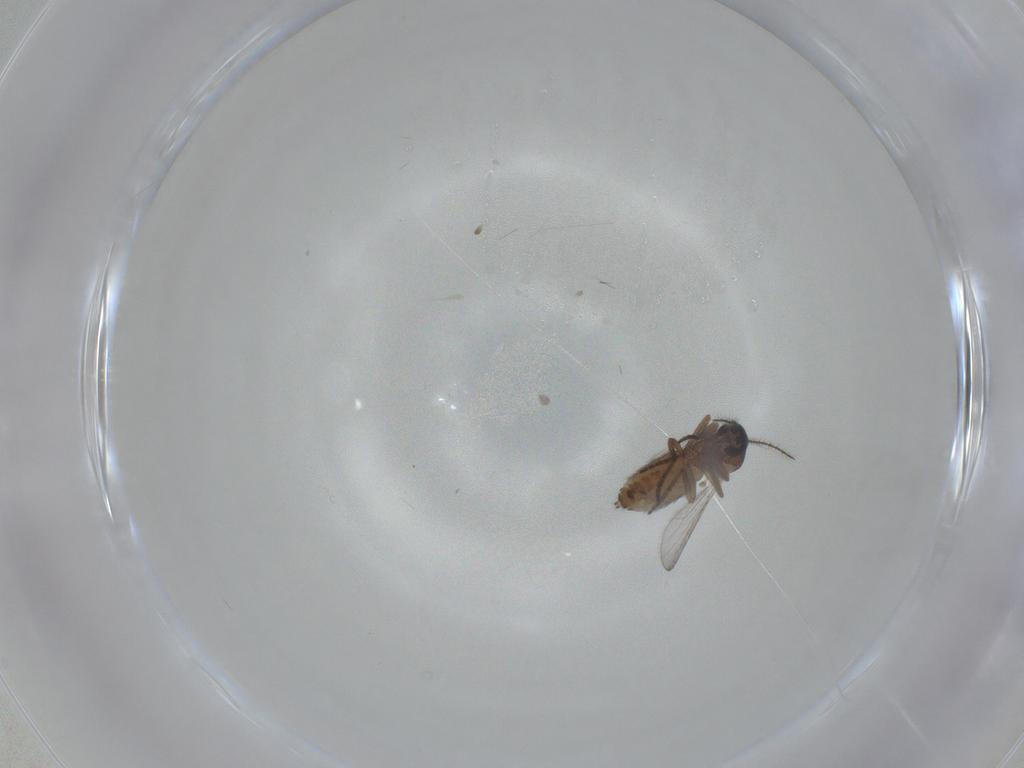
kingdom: Animalia
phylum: Arthropoda
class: Insecta
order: Diptera
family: Ceratopogonidae
